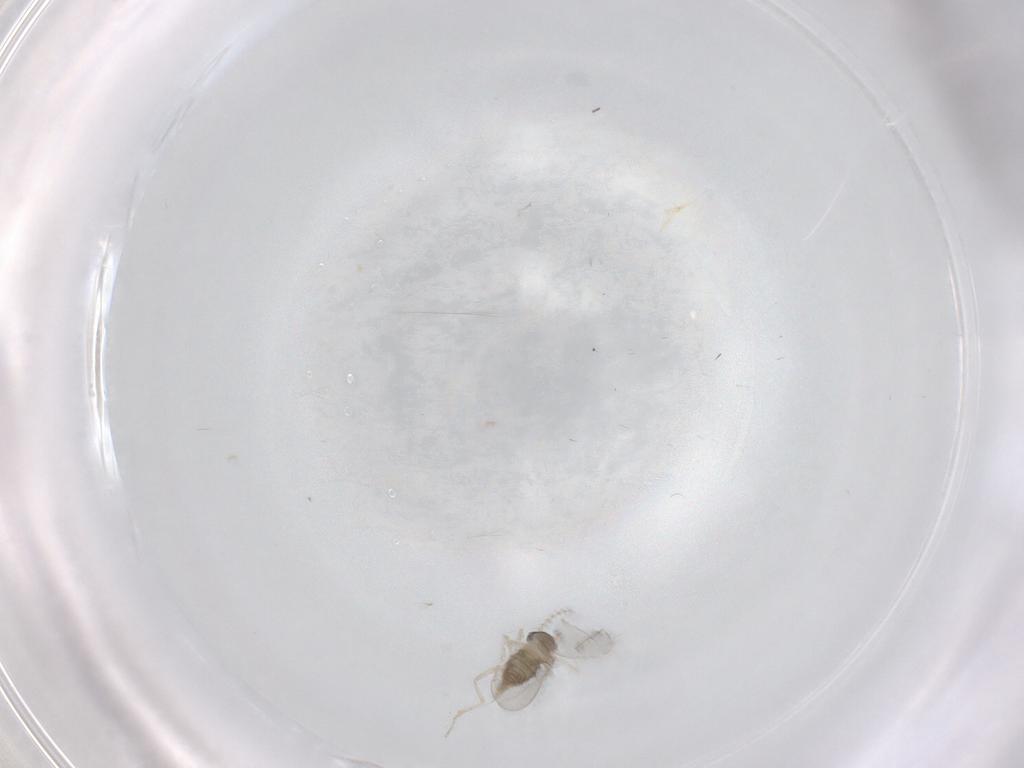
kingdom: Animalia
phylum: Arthropoda
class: Insecta
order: Diptera
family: Cecidomyiidae
